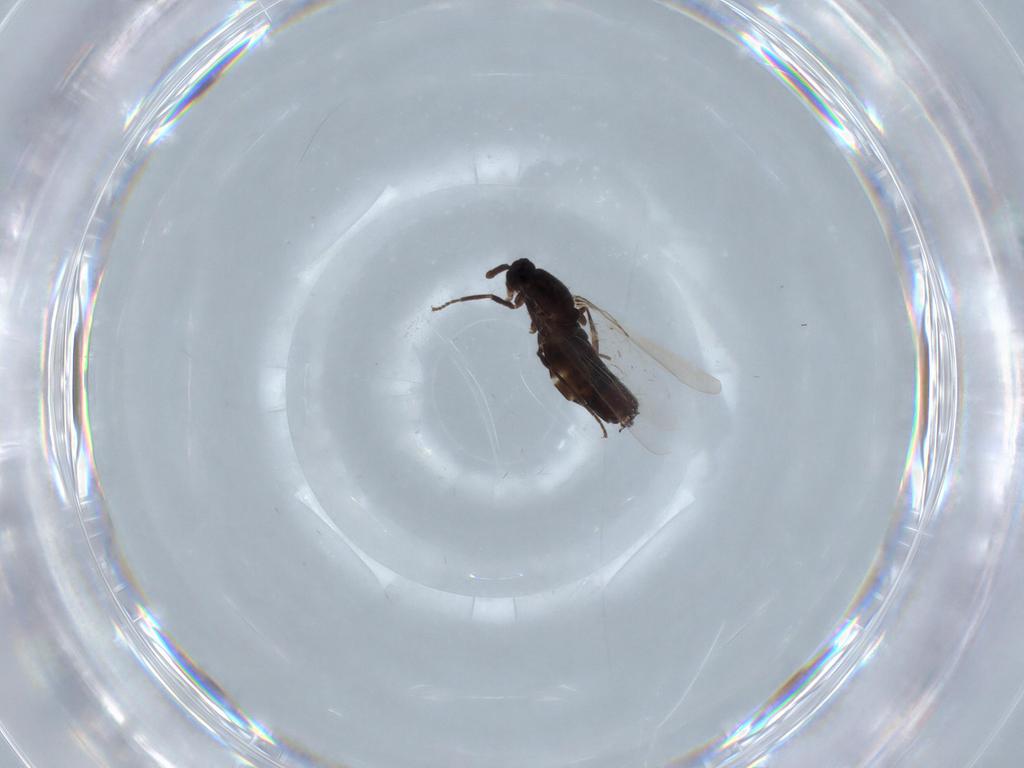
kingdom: Animalia
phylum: Arthropoda
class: Insecta
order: Diptera
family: Scatopsidae
